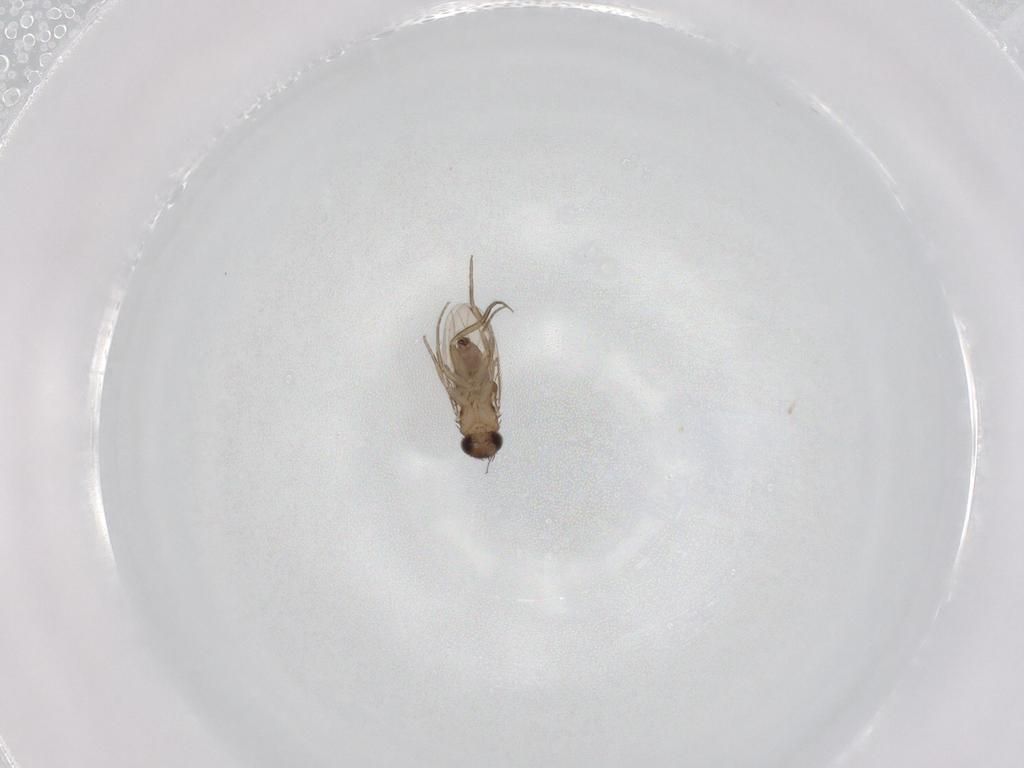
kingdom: Animalia
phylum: Arthropoda
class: Insecta
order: Diptera
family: Phoridae
